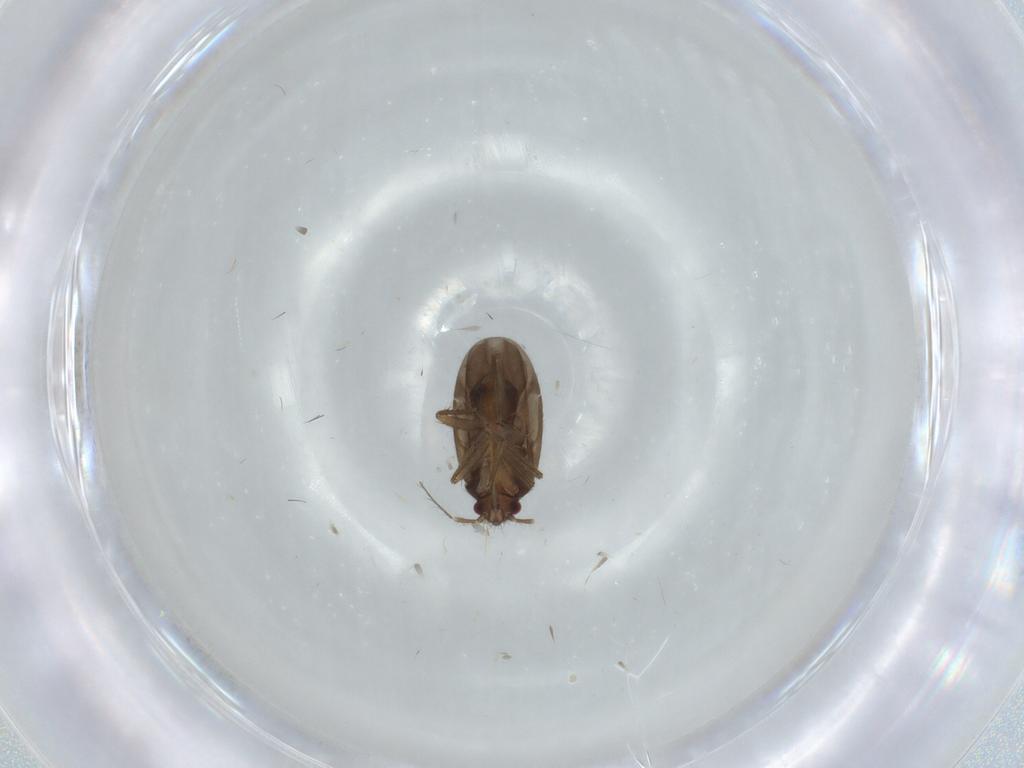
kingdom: Animalia
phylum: Arthropoda
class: Insecta
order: Hemiptera
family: Ceratocombidae
